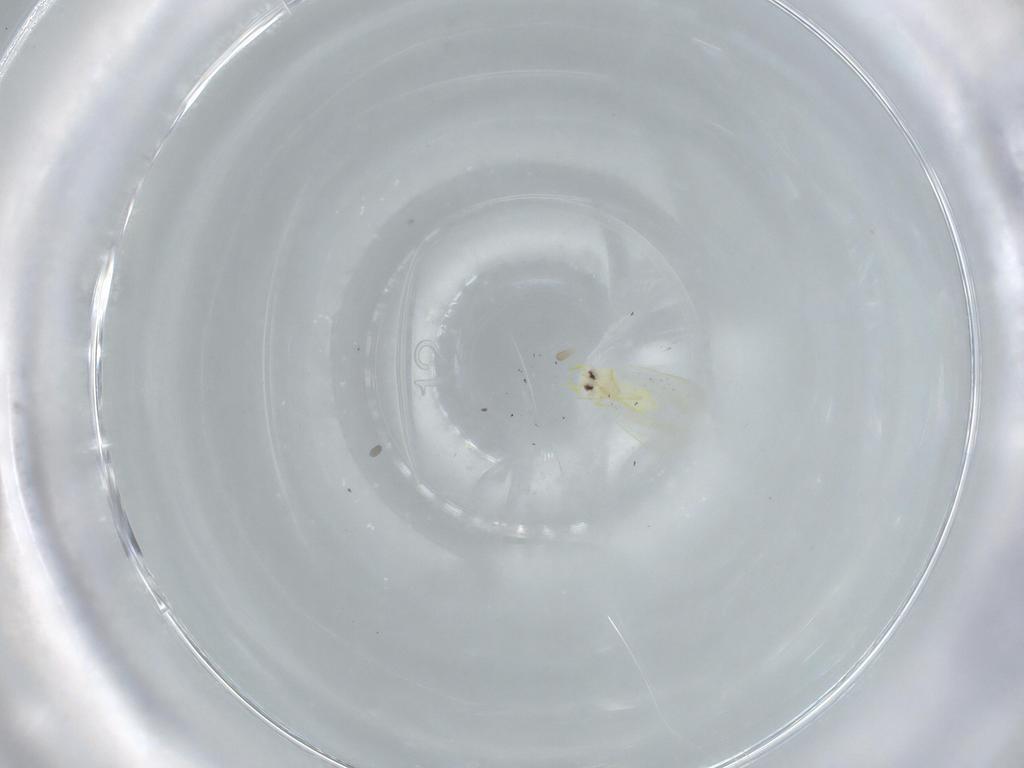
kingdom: Animalia
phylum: Arthropoda
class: Insecta
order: Hemiptera
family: Aleyrodidae
